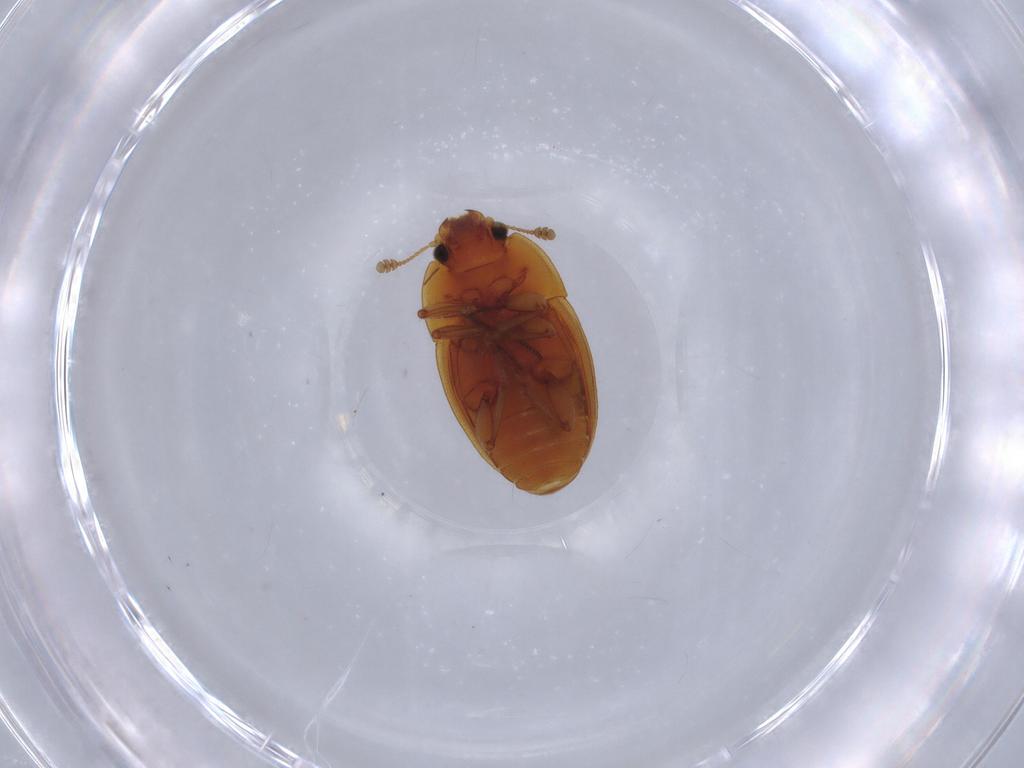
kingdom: Animalia
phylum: Arthropoda
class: Insecta
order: Coleoptera
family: Nitidulidae
